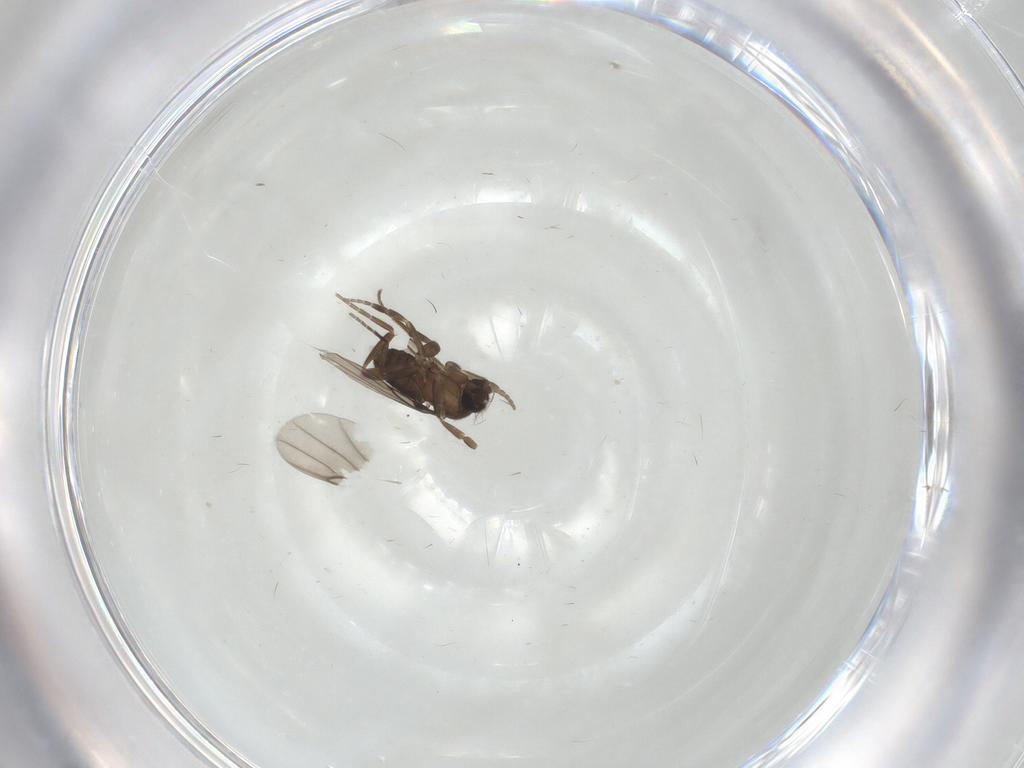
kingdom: Animalia
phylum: Arthropoda
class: Insecta
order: Diptera
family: Phoridae
